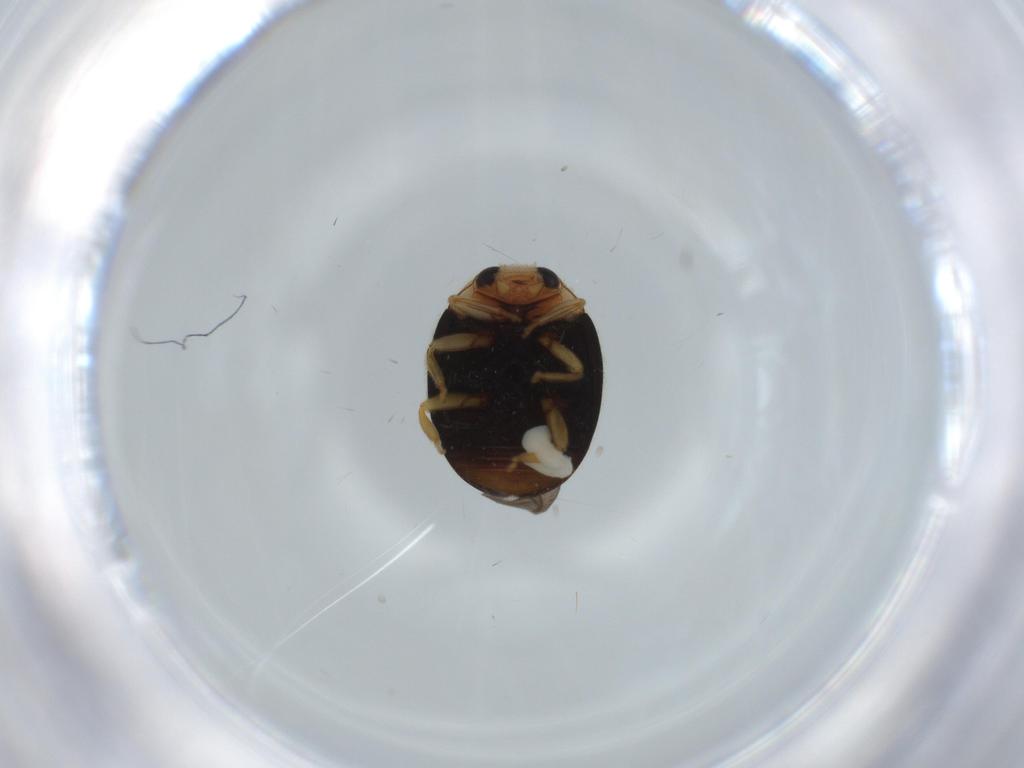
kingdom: Animalia
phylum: Arthropoda
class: Insecta
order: Coleoptera
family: Coccinellidae
